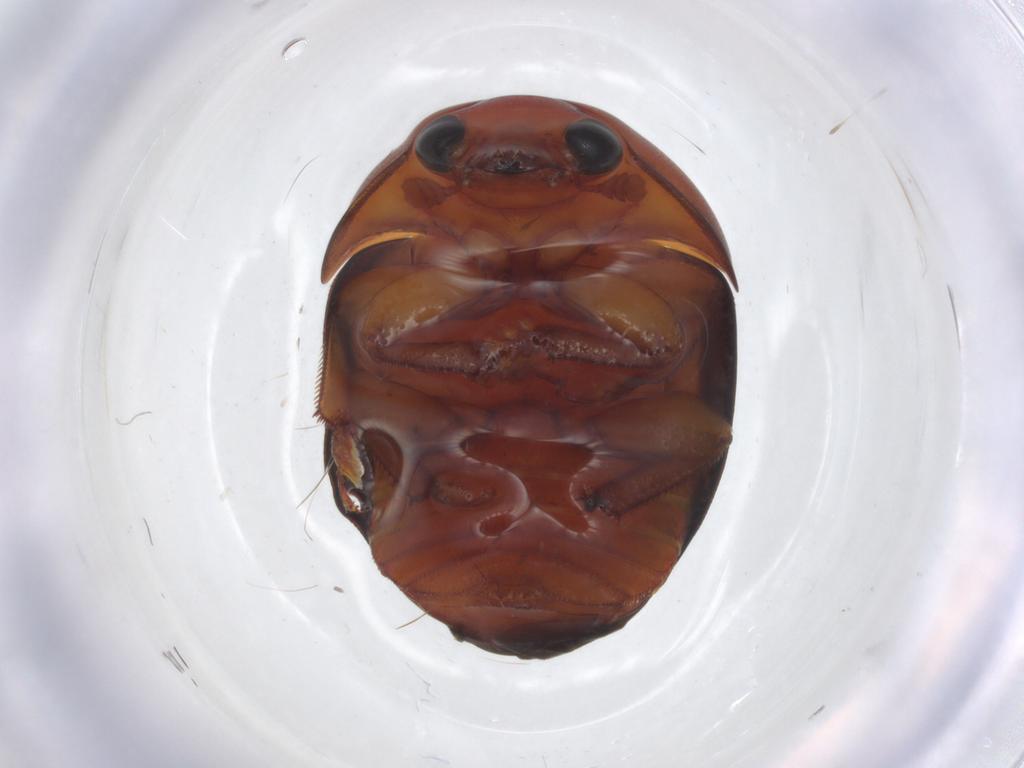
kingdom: Animalia
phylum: Arthropoda
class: Insecta
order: Coleoptera
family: Nitidulidae
